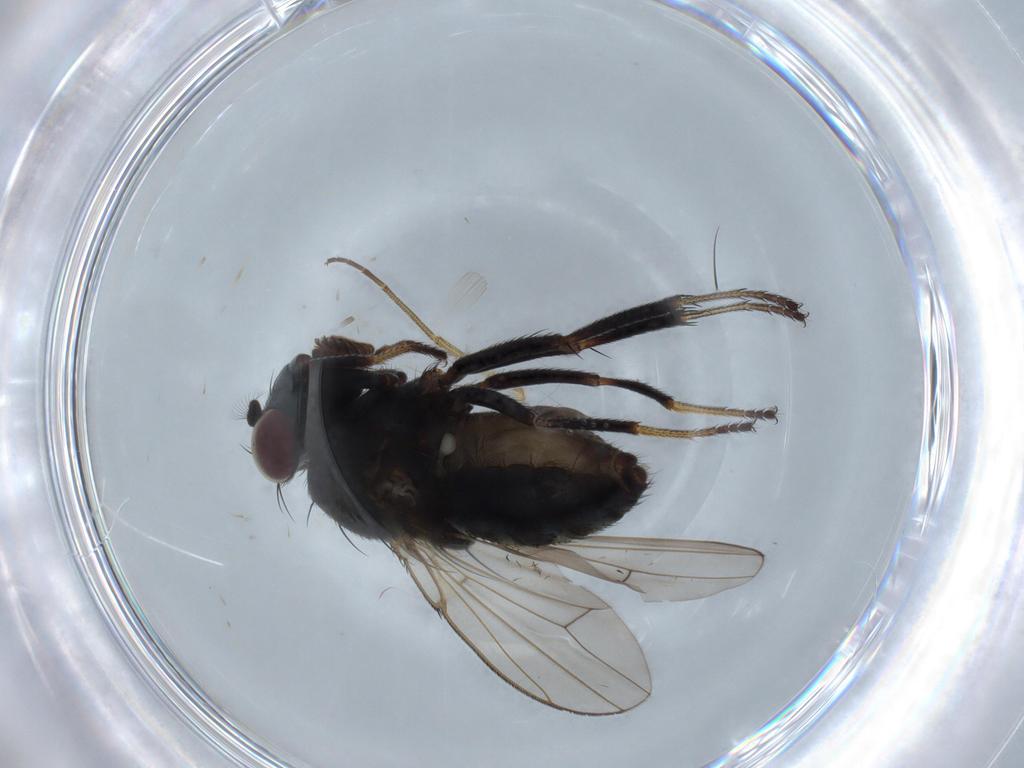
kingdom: Animalia
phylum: Arthropoda
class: Insecta
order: Diptera
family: Ephydridae
